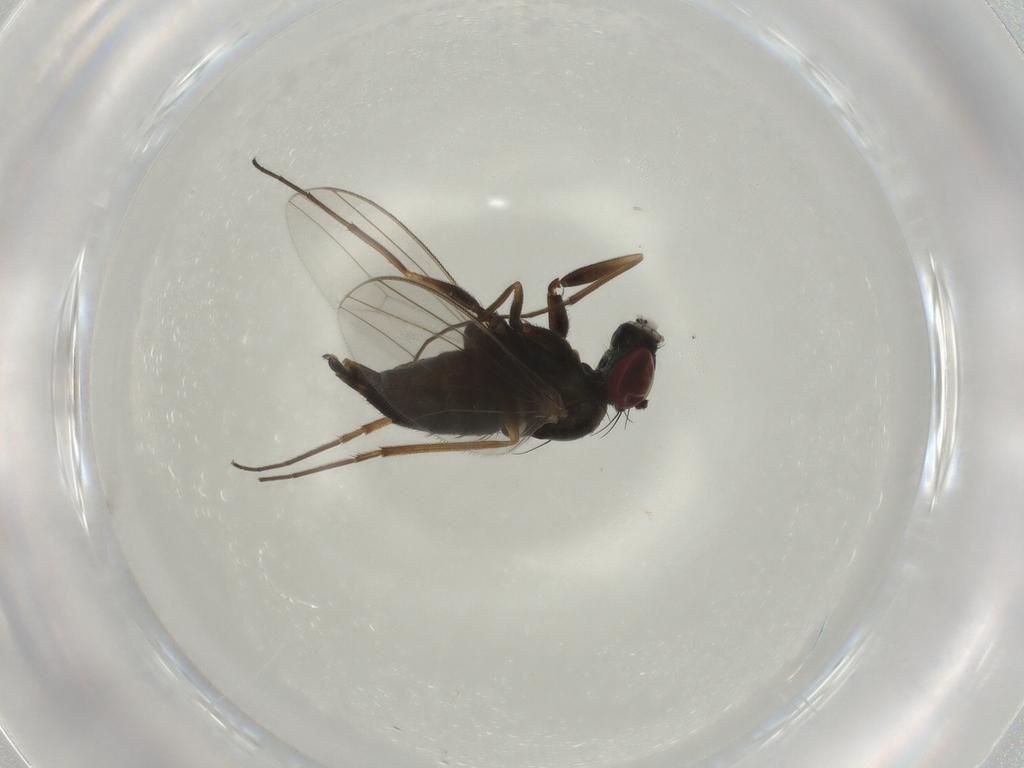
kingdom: Animalia
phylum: Arthropoda
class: Insecta
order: Diptera
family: Dolichopodidae
